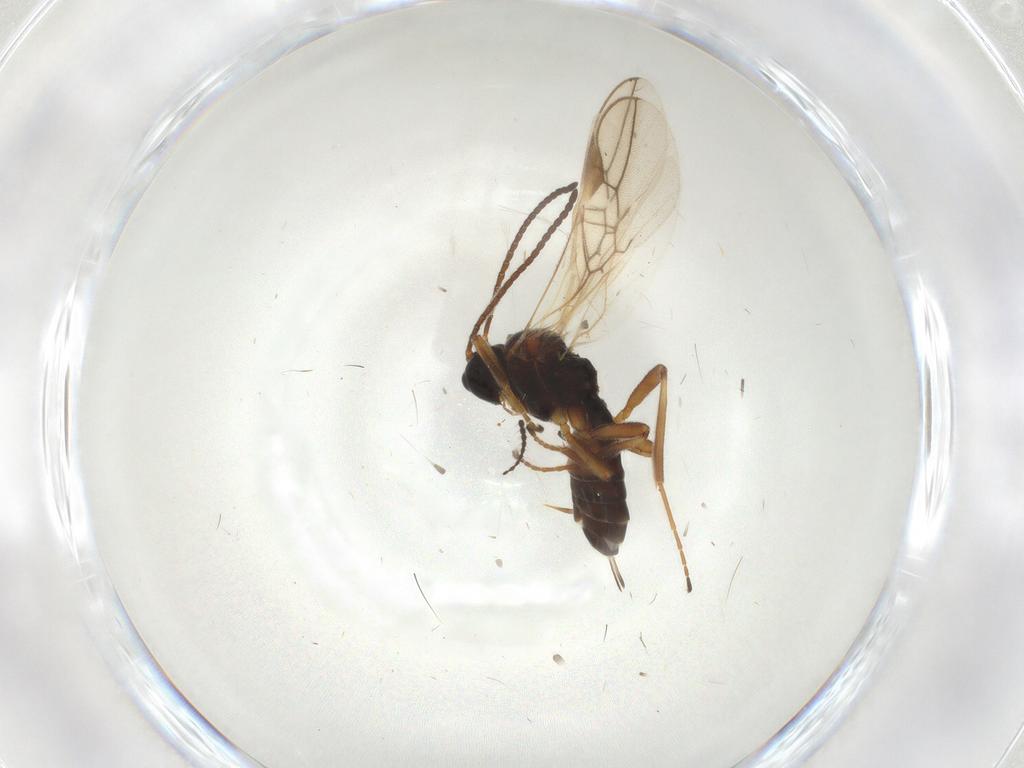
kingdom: Animalia
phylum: Arthropoda
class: Insecta
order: Hymenoptera
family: Braconidae
